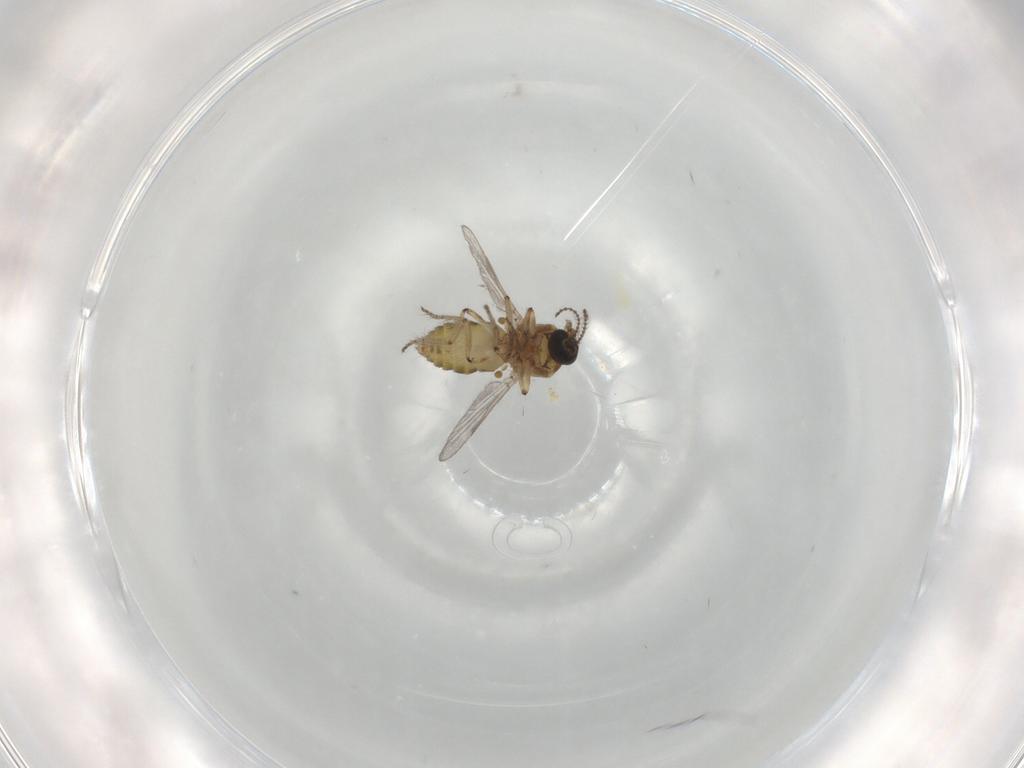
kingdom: Animalia
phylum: Arthropoda
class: Insecta
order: Diptera
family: Ceratopogonidae
